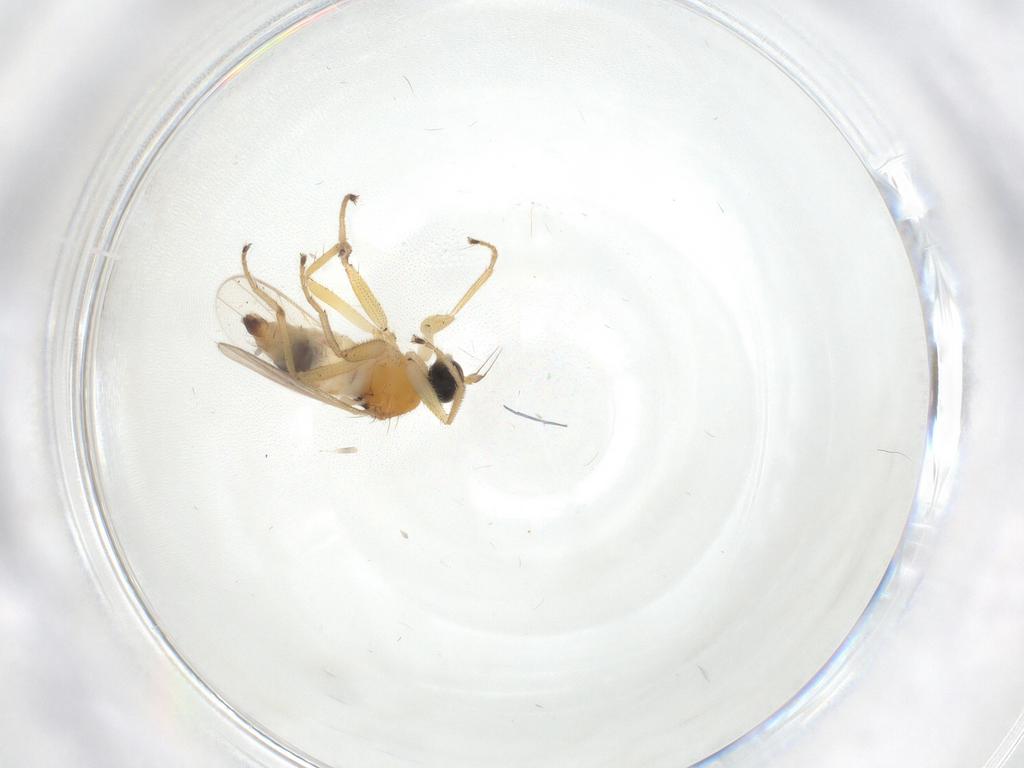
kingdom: Animalia
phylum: Arthropoda
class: Insecta
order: Diptera
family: Hybotidae
